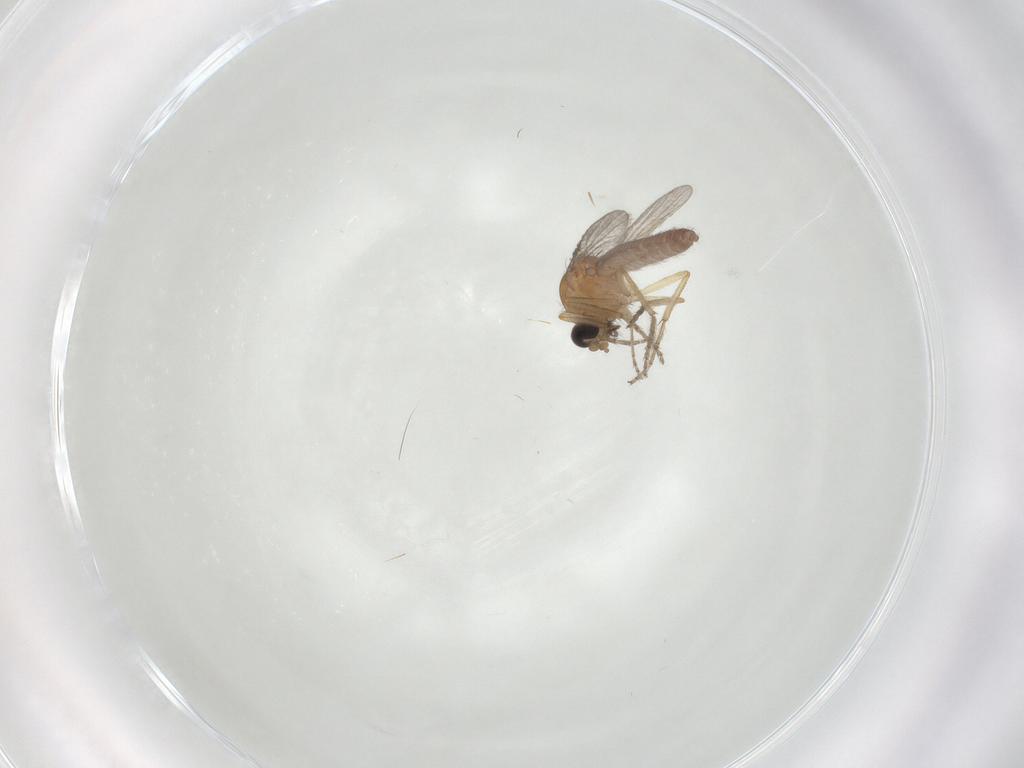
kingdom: Animalia
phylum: Arthropoda
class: Insecta
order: Diptera
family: Ceratopogonidae
